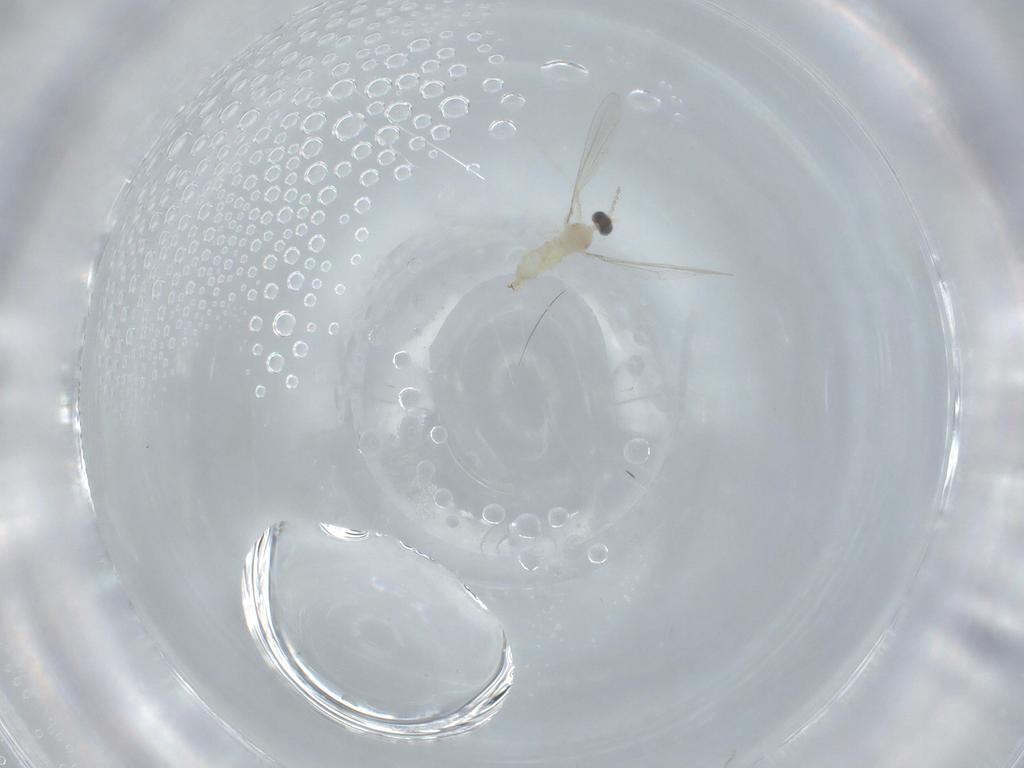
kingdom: Animalia
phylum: Arthropoda
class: Insecta
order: Diptera
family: Cecidomyiidae
